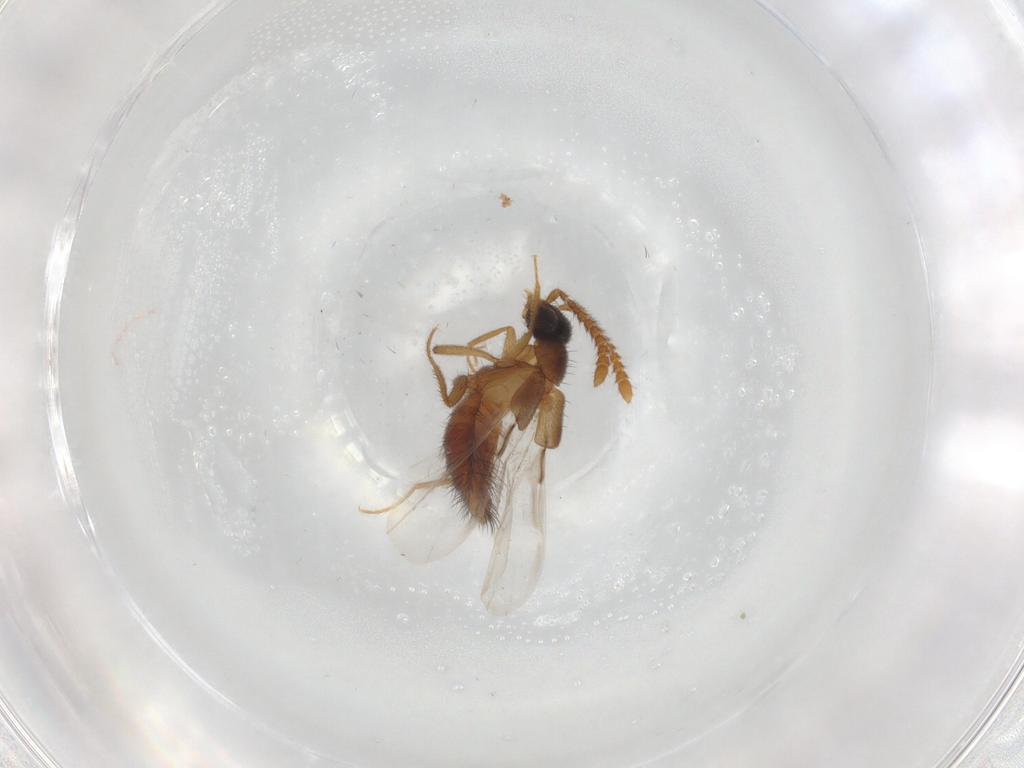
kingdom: Animalia
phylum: Arthropoda
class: Insecta
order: Coleoptera
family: Staphylinidae
